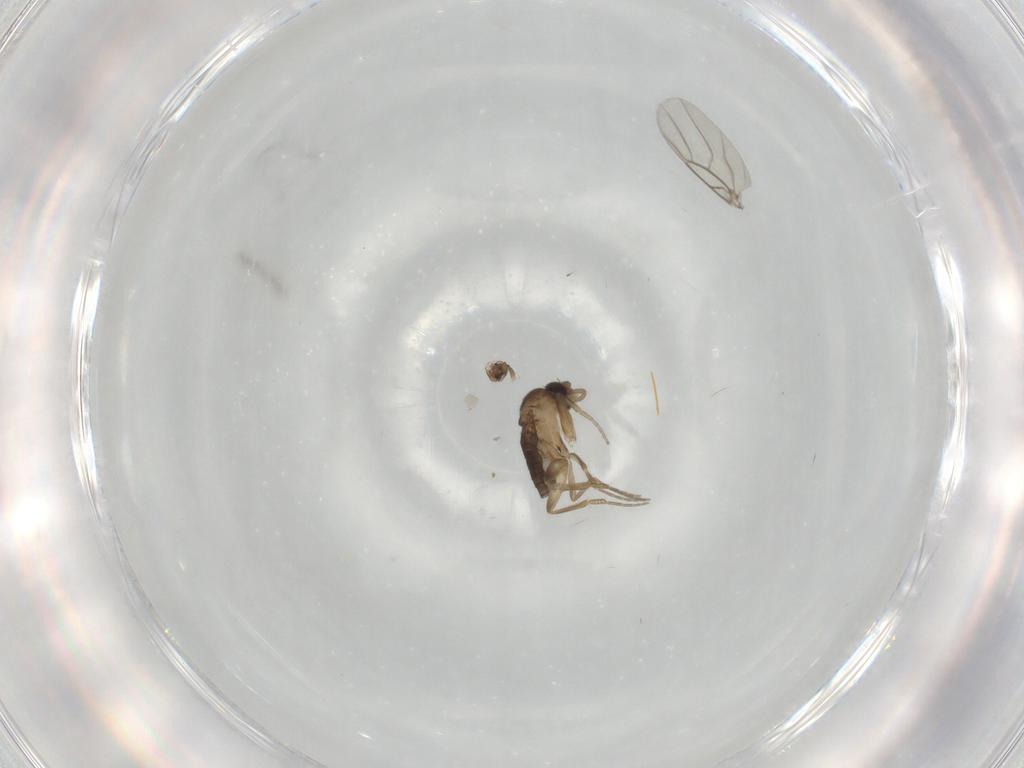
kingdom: Animalia
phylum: Arthropoda
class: Insecta
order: Diptera
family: Phoridae
